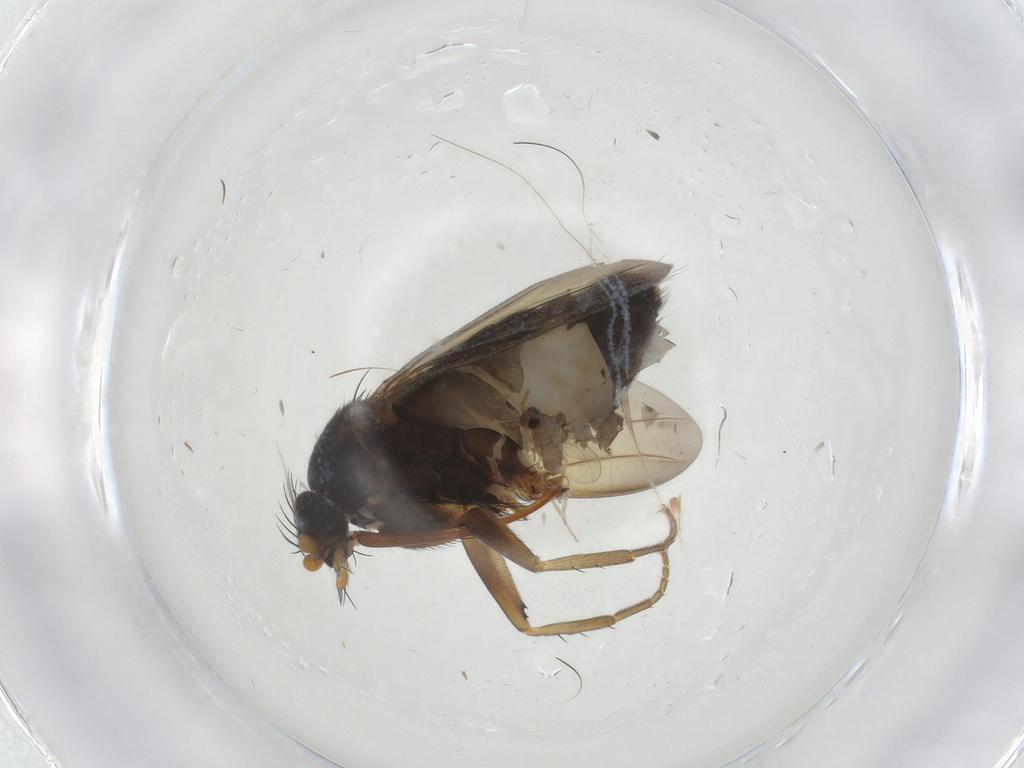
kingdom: Animalia
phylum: Arthropoda
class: Insecta
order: Diptera
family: Phoridae
